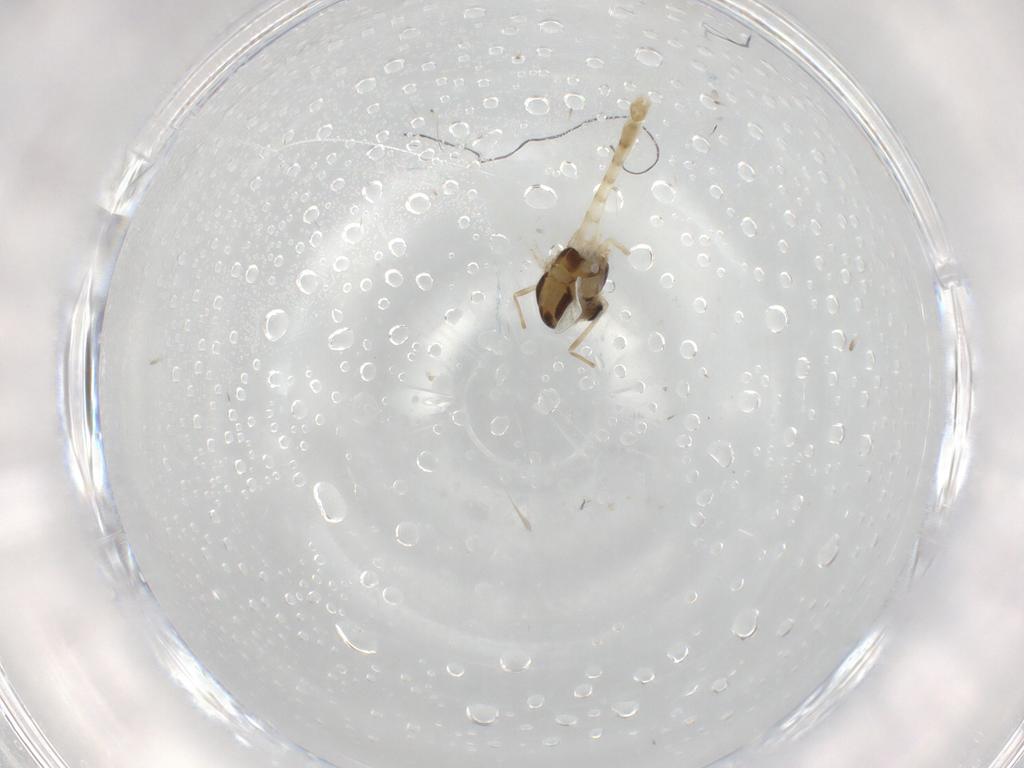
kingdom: Animalia
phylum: Arthropoda
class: Insecta
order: Diptera
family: Chironomidae
